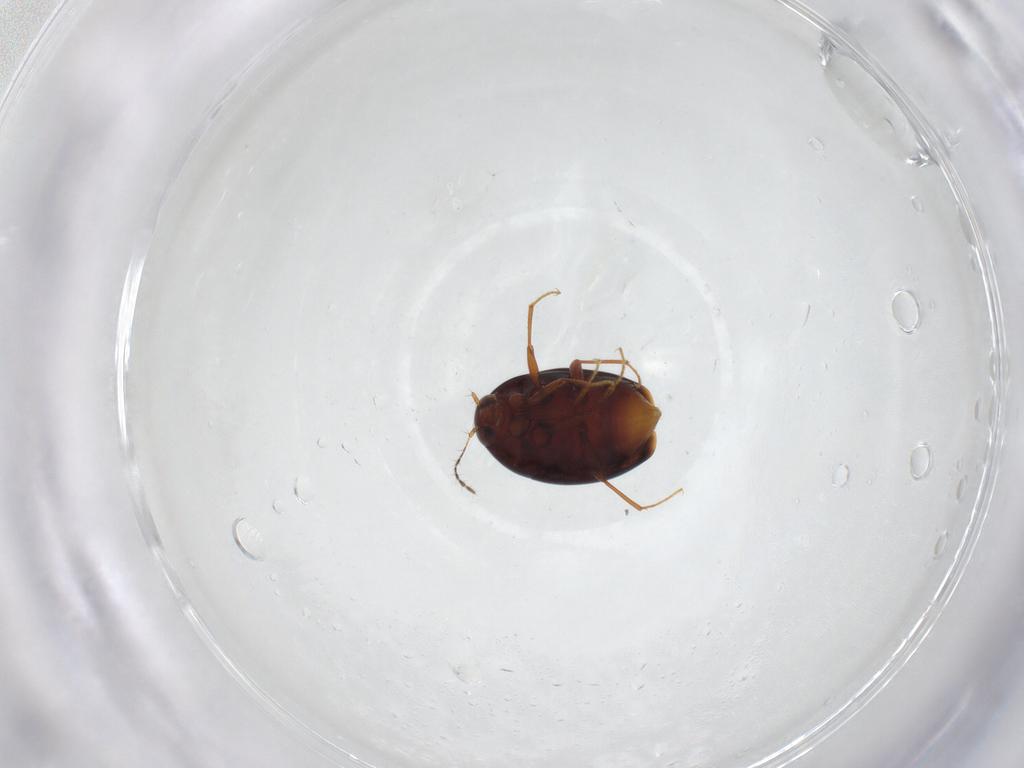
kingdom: Animalia
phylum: Arthropoda
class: Insecta
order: Coleoptera
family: Staphylinidae
